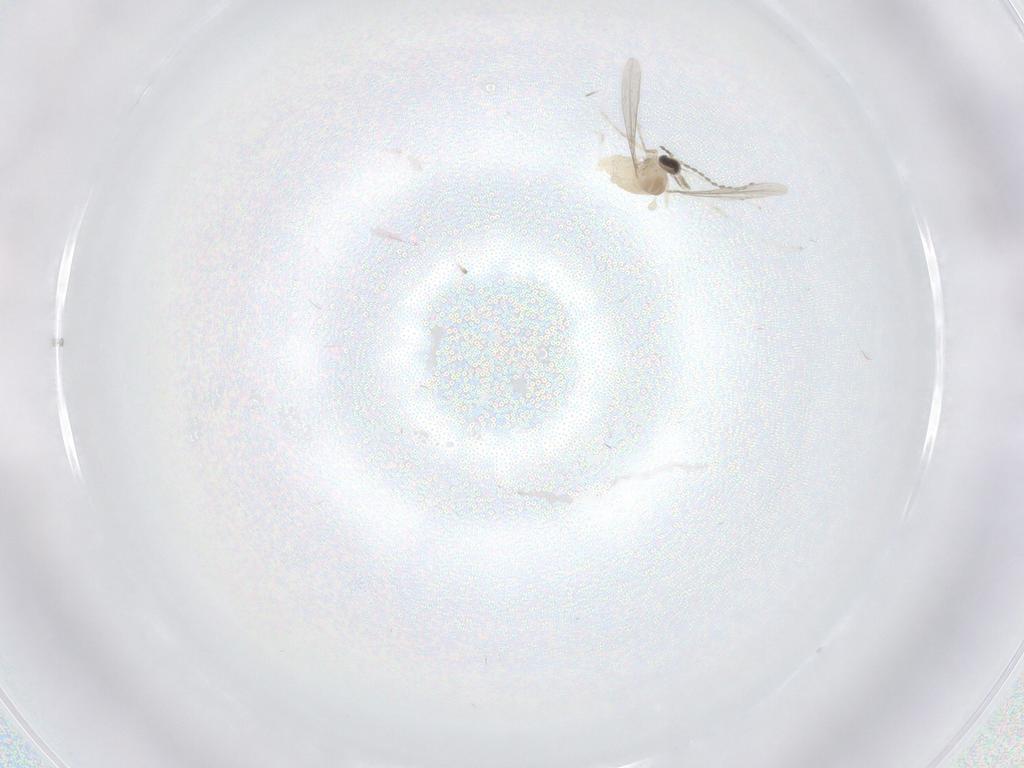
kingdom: Animalia
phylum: Arthropoda
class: Insecta
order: Diptera
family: Cecidomyiidae
